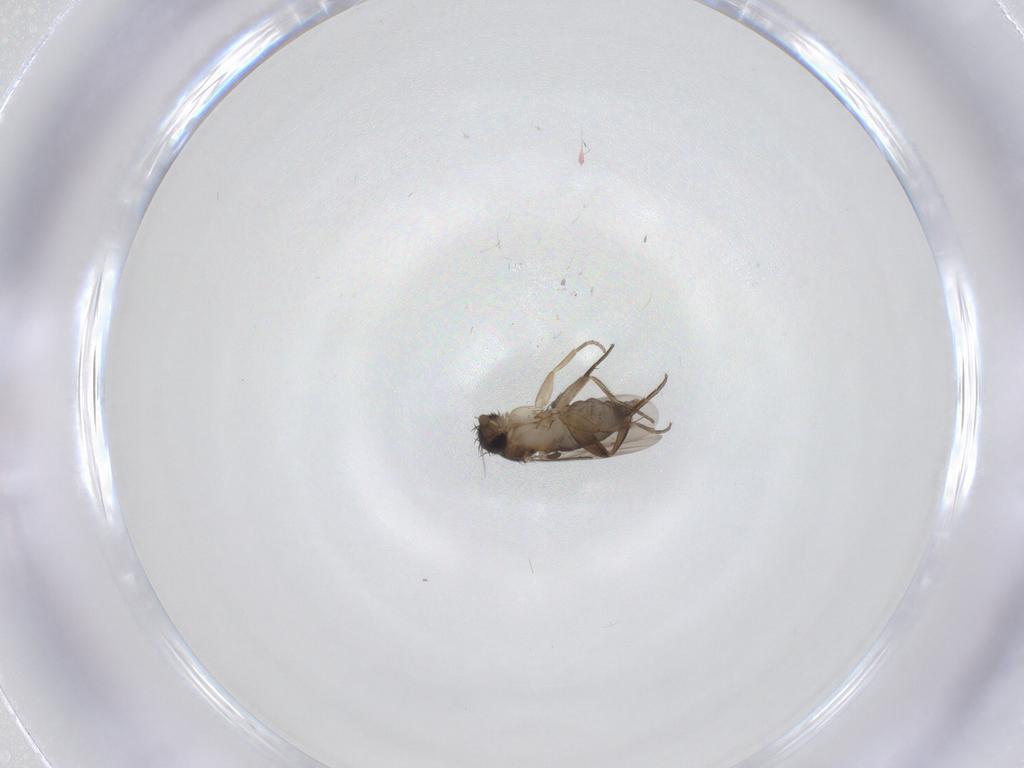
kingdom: Animalia
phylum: Arthropoda
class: Insecta
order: Diptera
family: Phoridae
